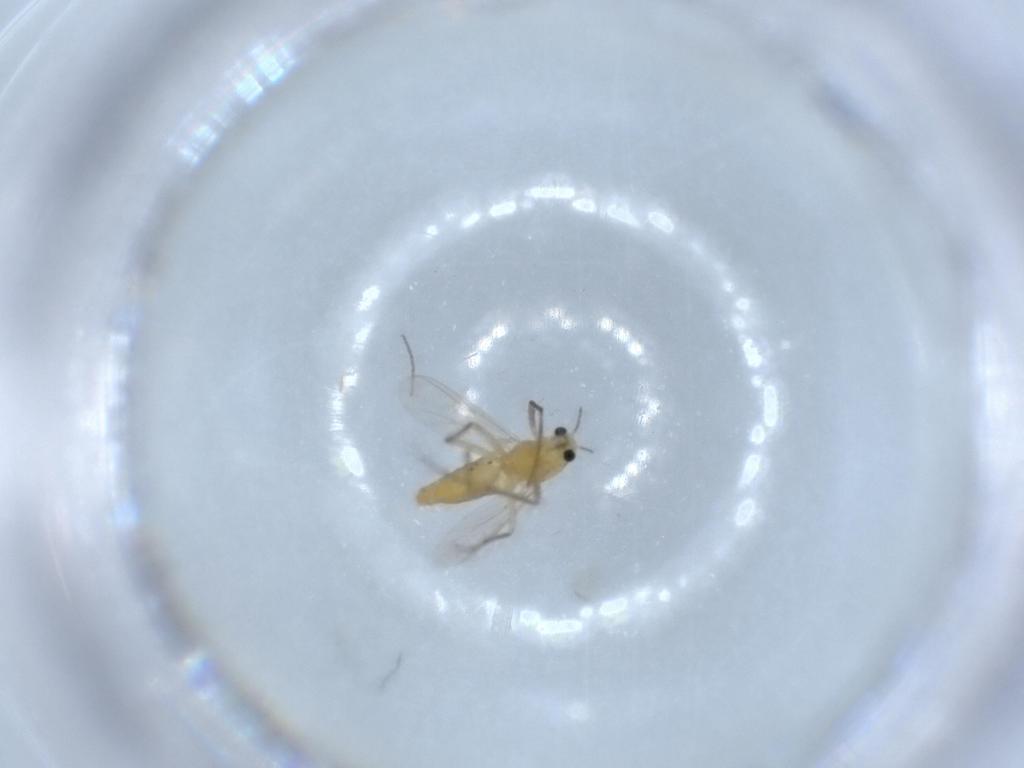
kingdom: Animalia
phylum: Arthropoda
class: Insecta
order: Diptera
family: Chironomidae
